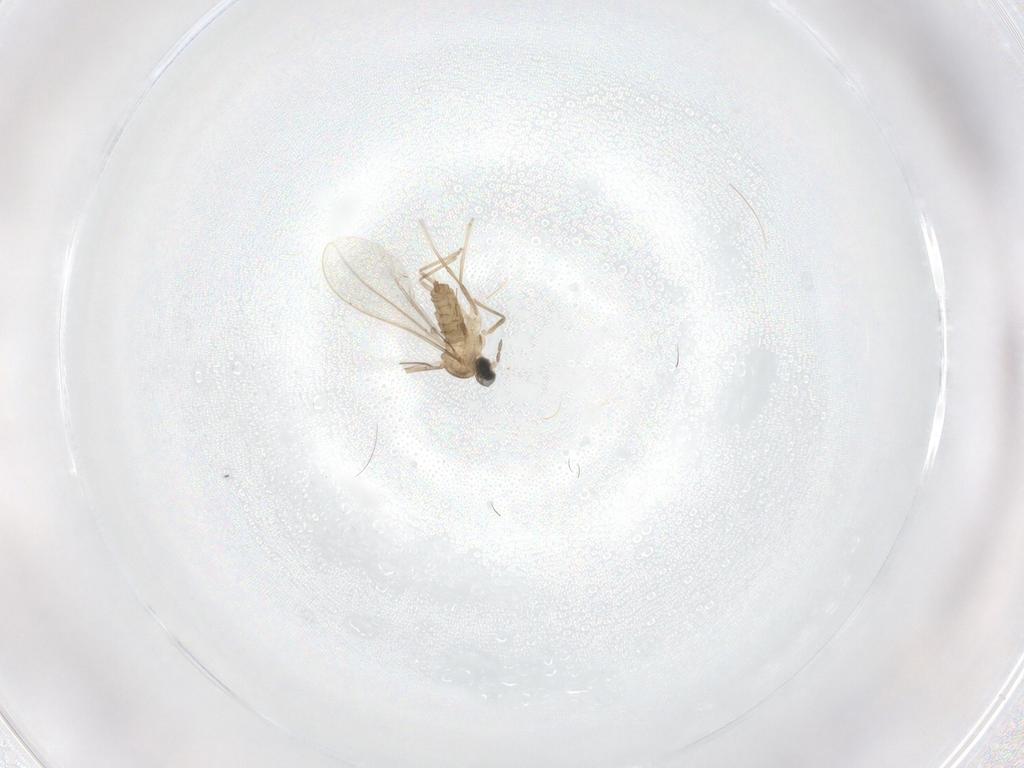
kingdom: Animalia
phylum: Arthropoda
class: Insecta
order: Diptera
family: Cecidomyiidae
